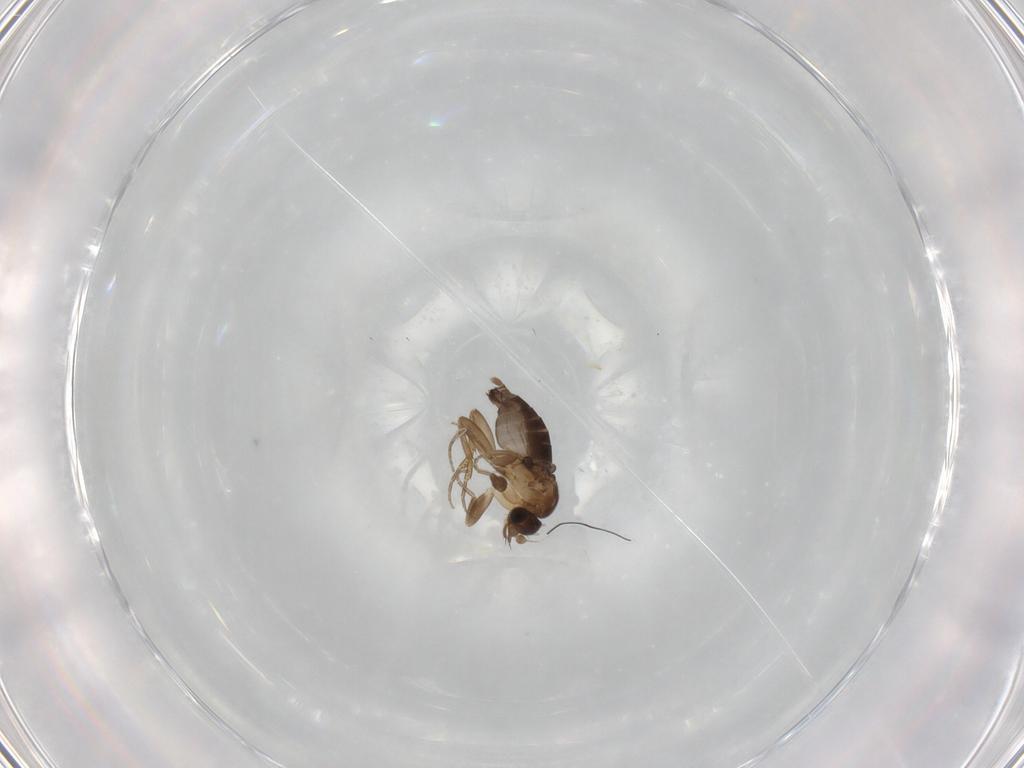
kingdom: Animalia
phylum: Arthropoda
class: Insecta
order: Diptera
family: Phoridae
